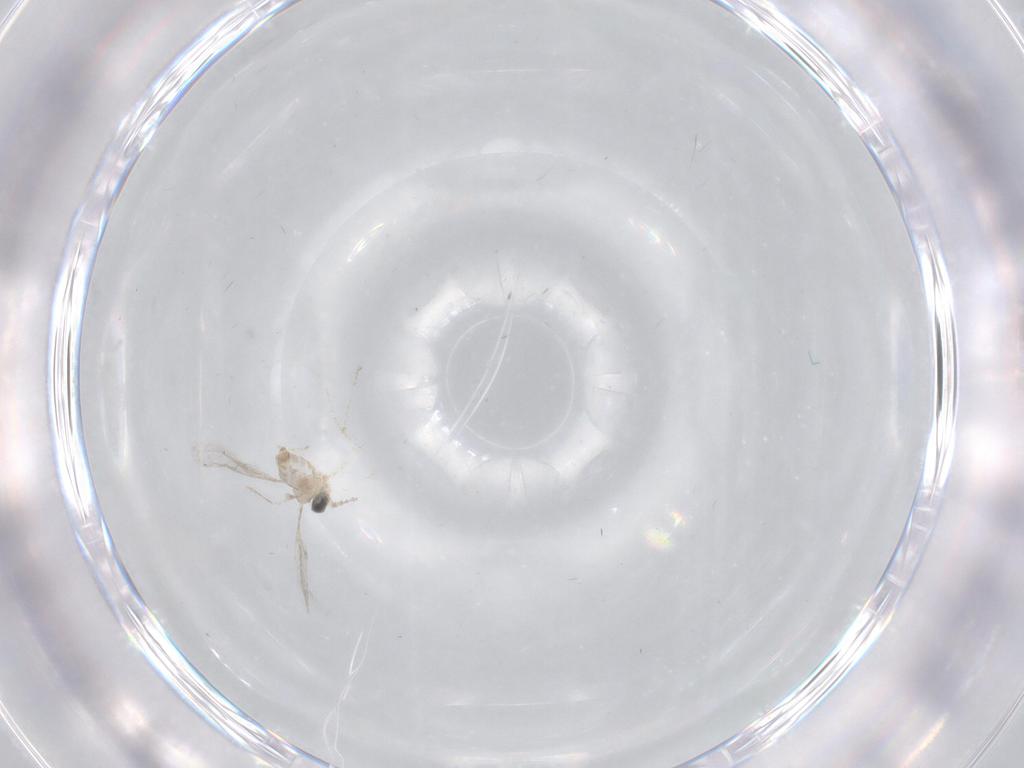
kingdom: Animalia
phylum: Arthropoda
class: Insecta
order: Diptera
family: Cecidomyiidae
